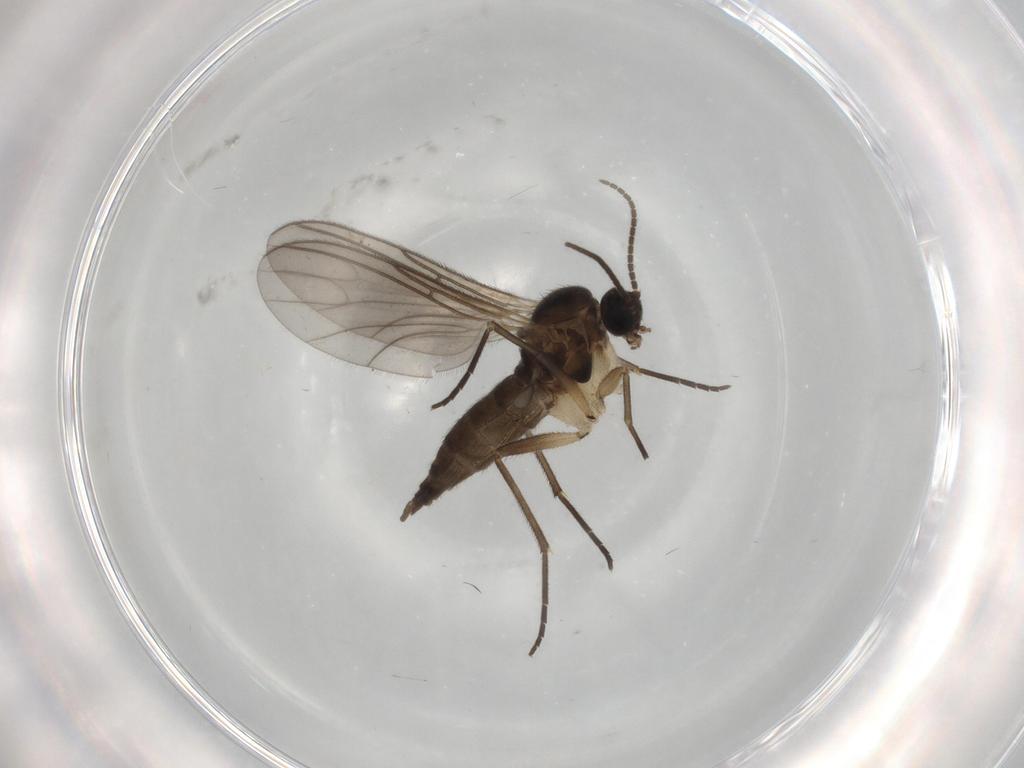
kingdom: Animalia
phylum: Arthropoda
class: Insecta
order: Diptera
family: Sciaridae
